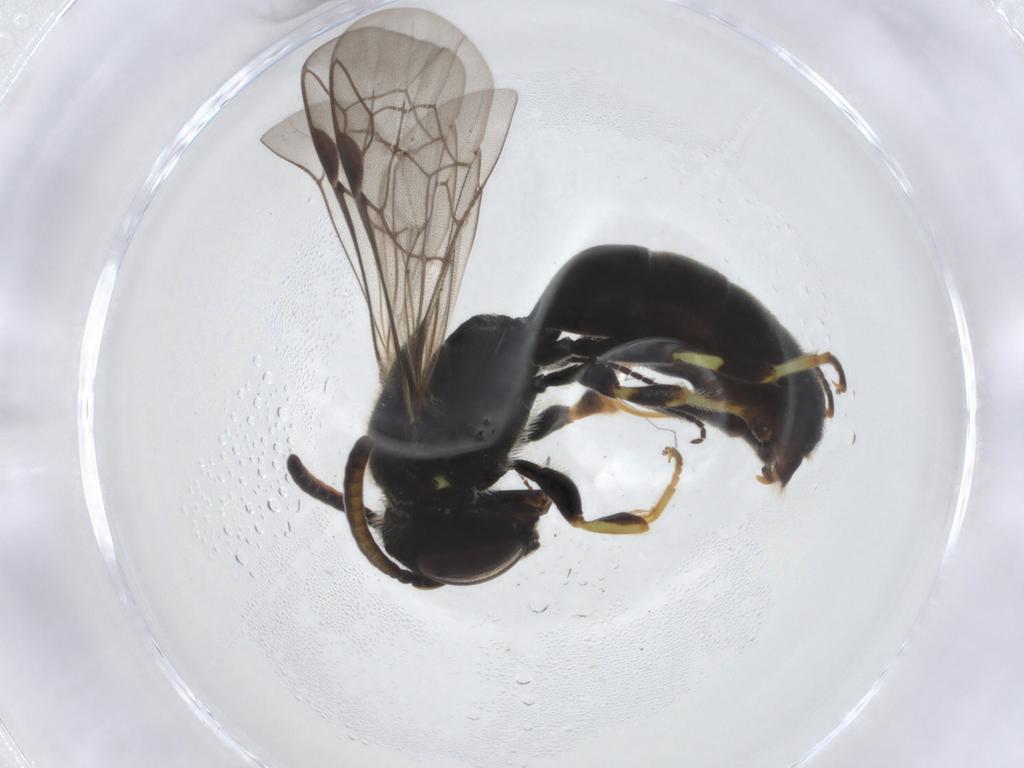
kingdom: Animalia
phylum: Arthropoda
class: Insecta
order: Hymenoptera
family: Colletidae
